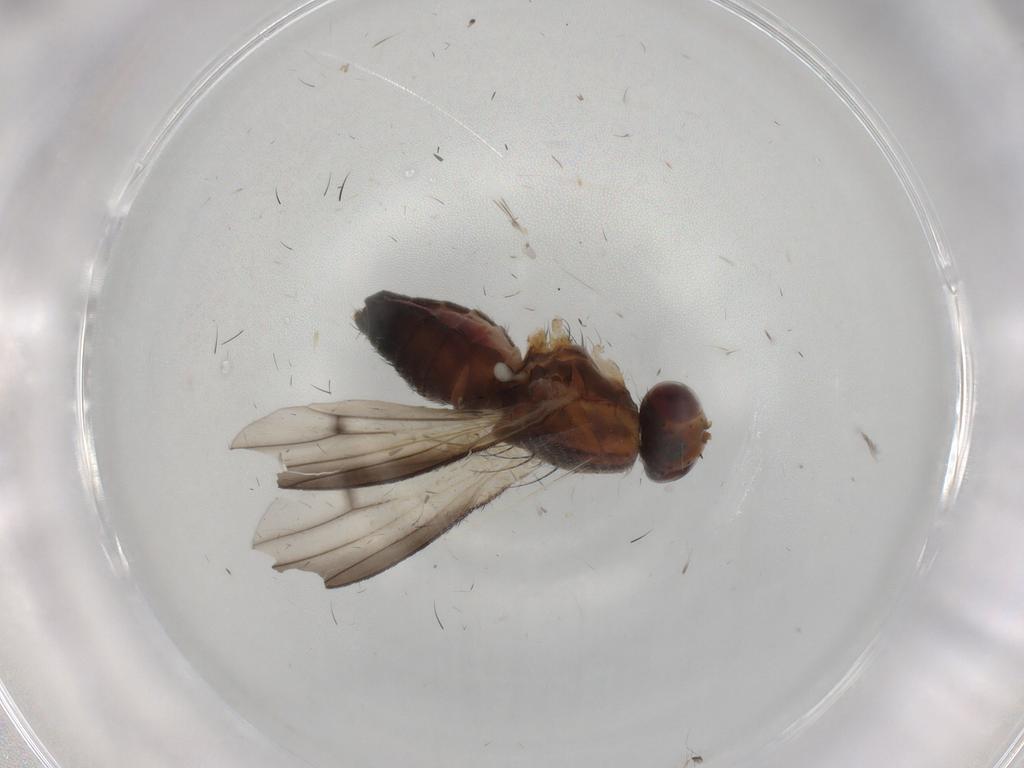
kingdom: Animalia
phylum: Arthropoda
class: Insecta
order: Diptera
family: Heleomyzidae
